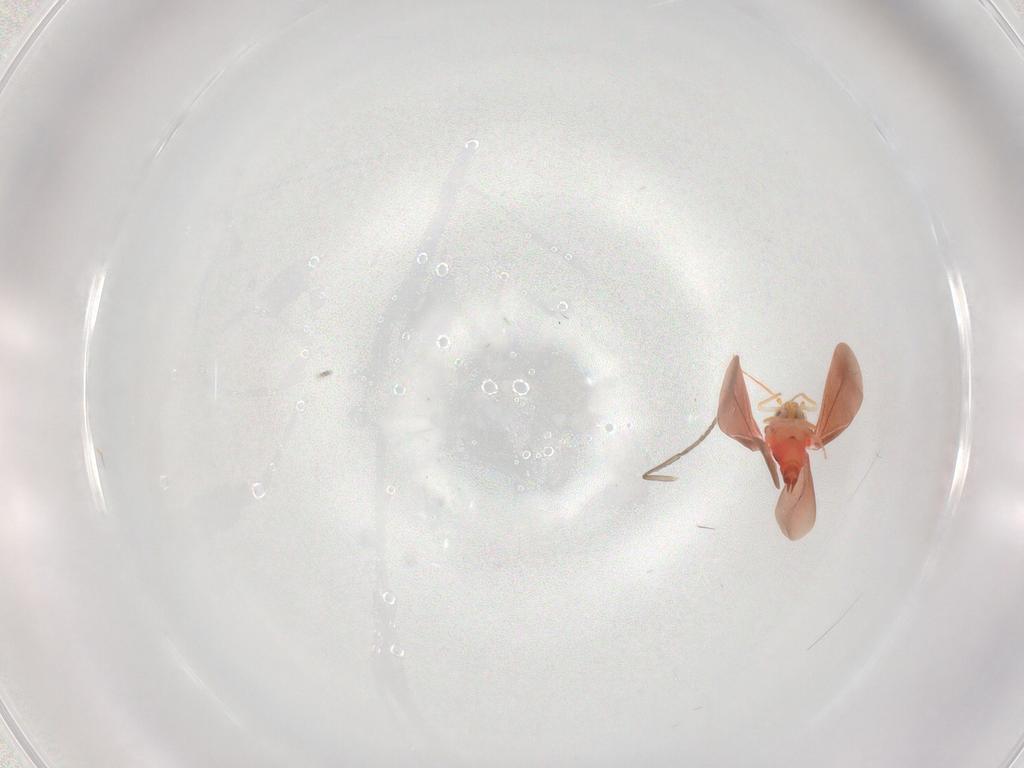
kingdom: Animalia
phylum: Arthropoda
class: Insecta
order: Hemiptera
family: Aleyrodidae
